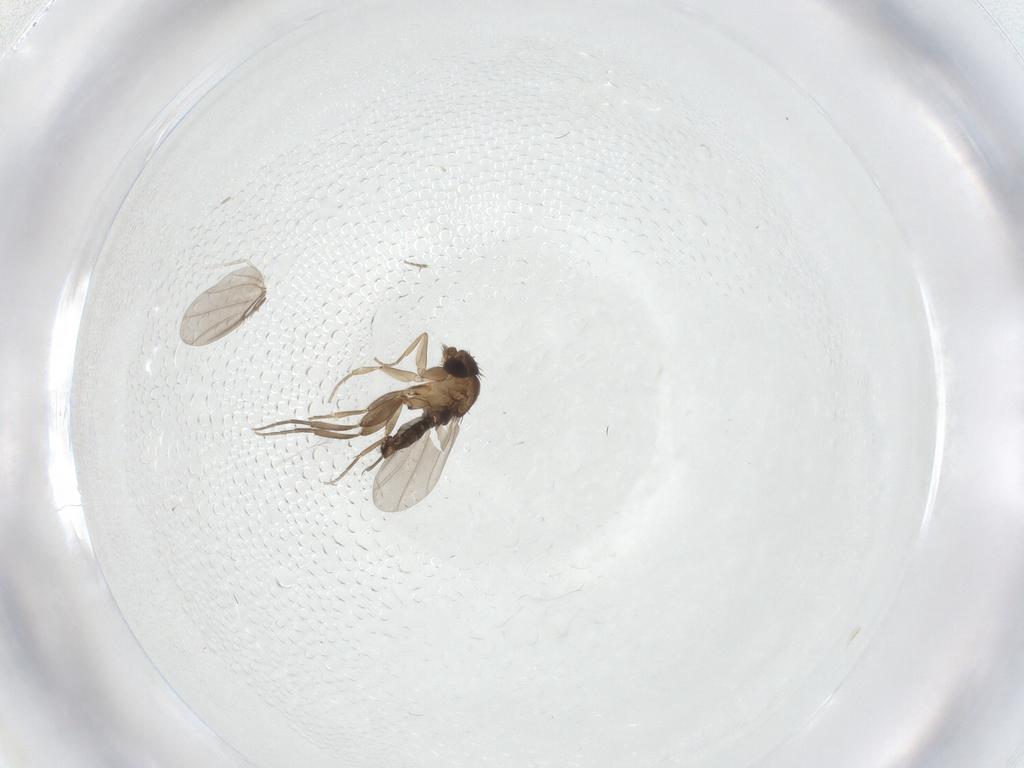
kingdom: Animalia
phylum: Arthropoda
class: Insecta
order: Diptera
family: Phoridae
